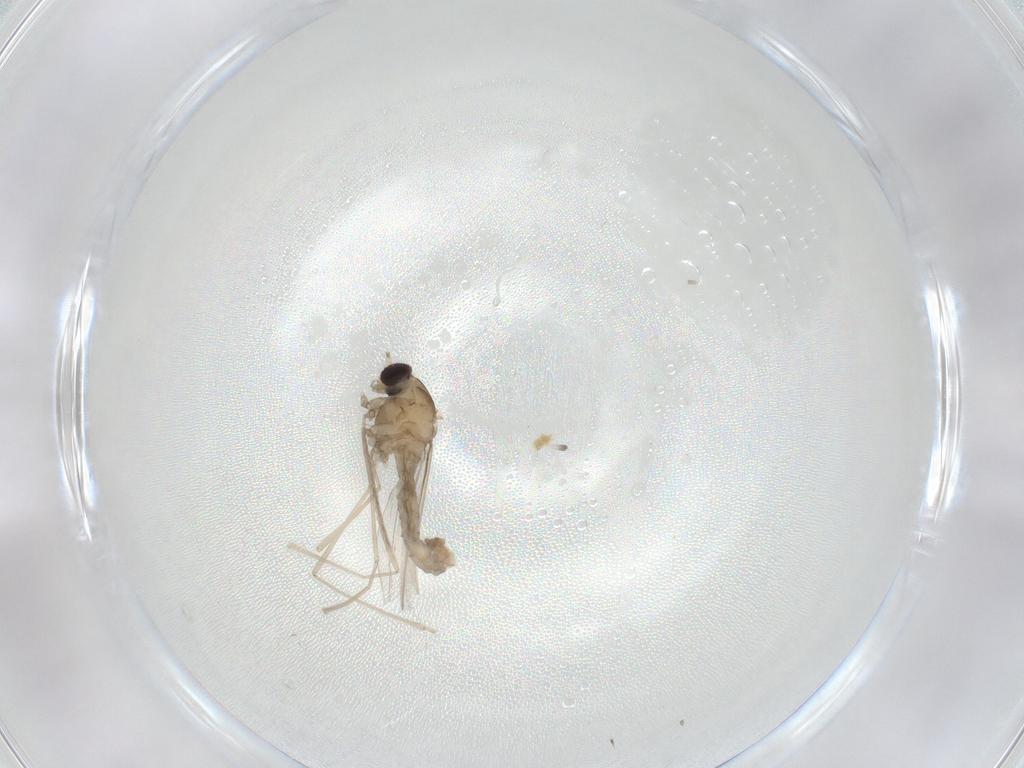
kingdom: Animalia
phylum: Arthropoda
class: Insecta
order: Diptera
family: Cecidomyiidae
